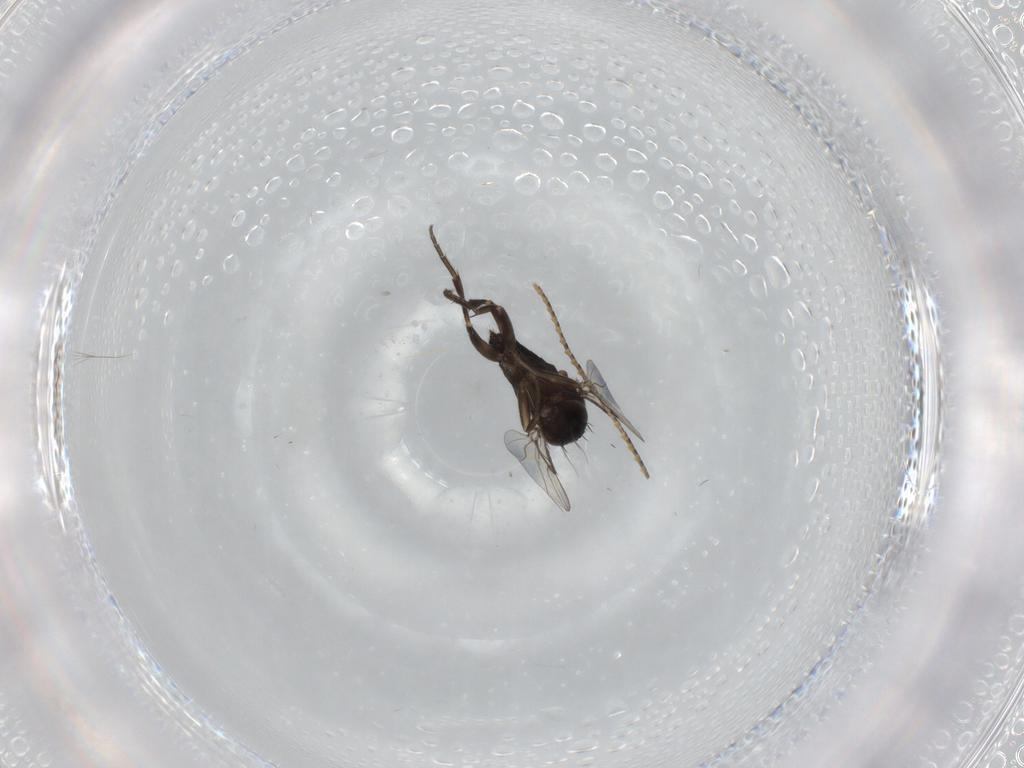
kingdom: Animalia
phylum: Arthropoda
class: Insecta
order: Diptera
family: Phoridae
